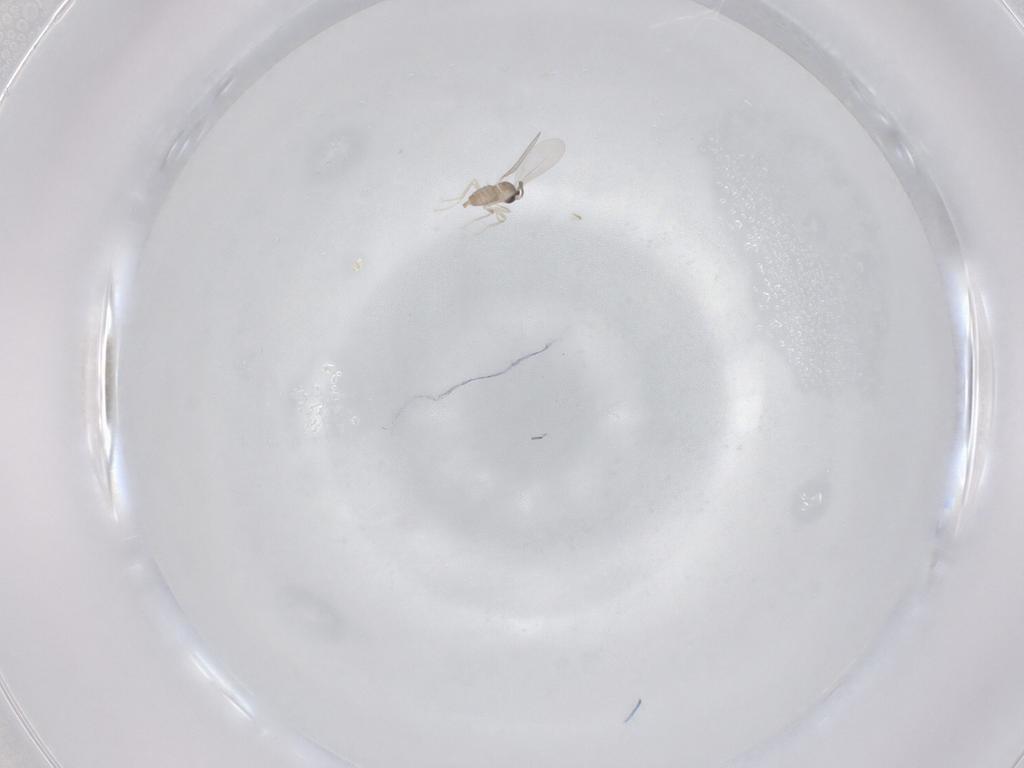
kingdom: Animalia
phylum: Arthropoda
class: Insecta
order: Diptera
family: Cecidomyiidae
